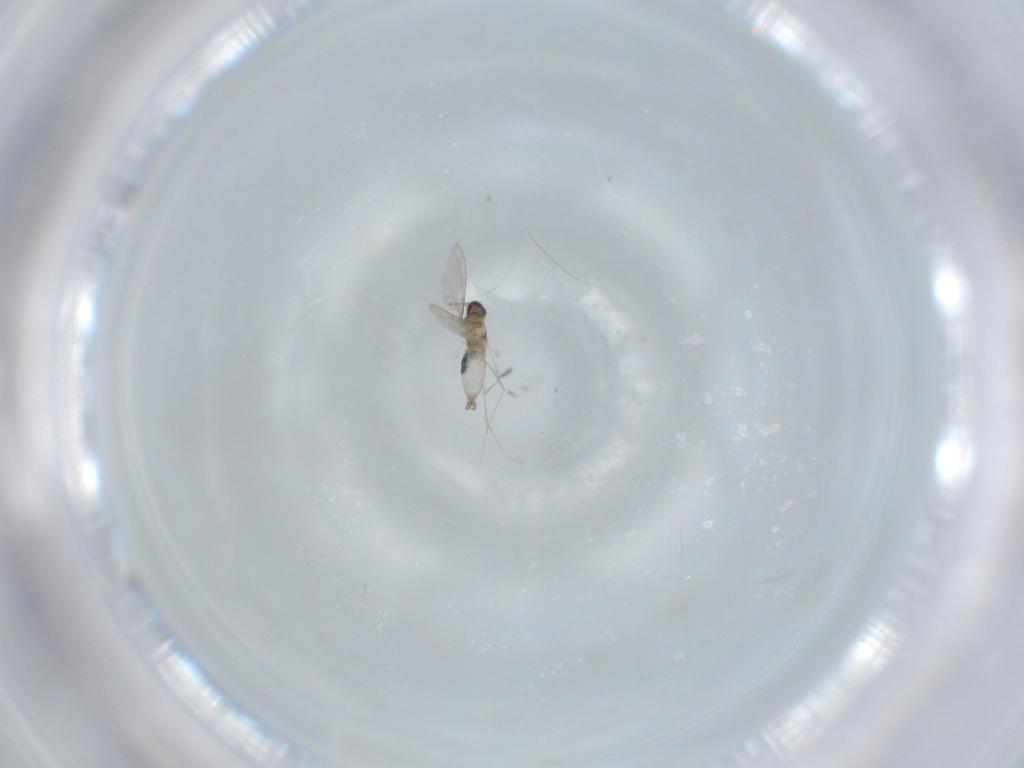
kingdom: Animalia
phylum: Arthropoda
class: Insecta
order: Diptera
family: Cecidomyiidae
